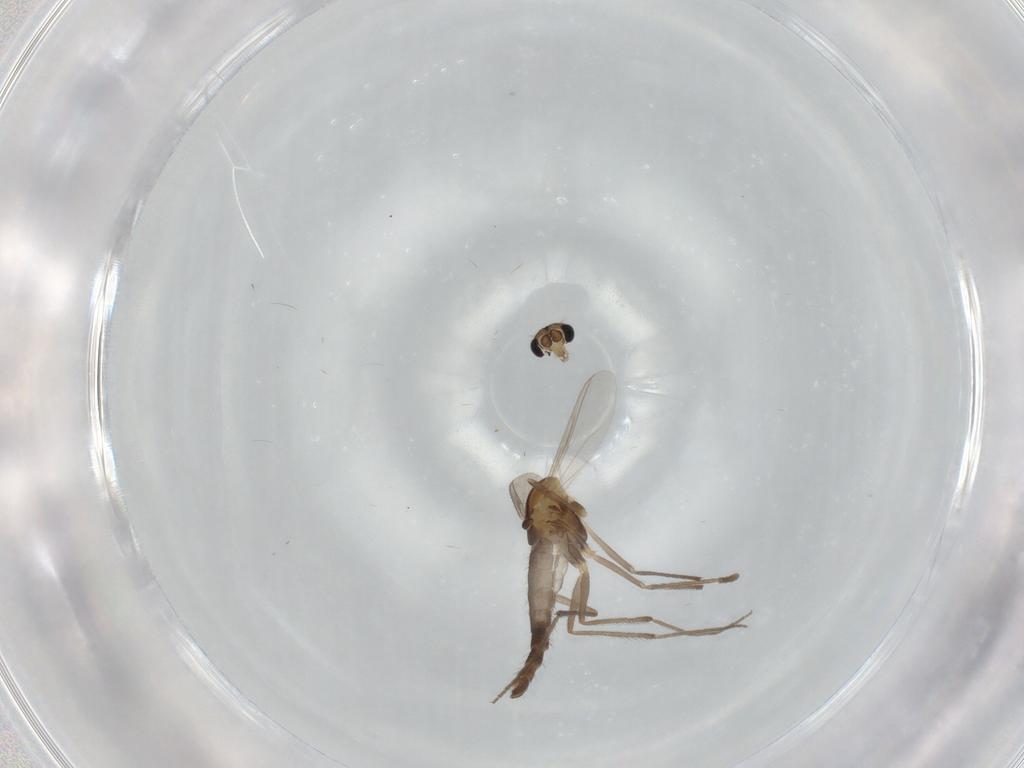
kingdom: Animalia
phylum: Arthropoda
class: Insecta
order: Diptera
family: Chironomidae
